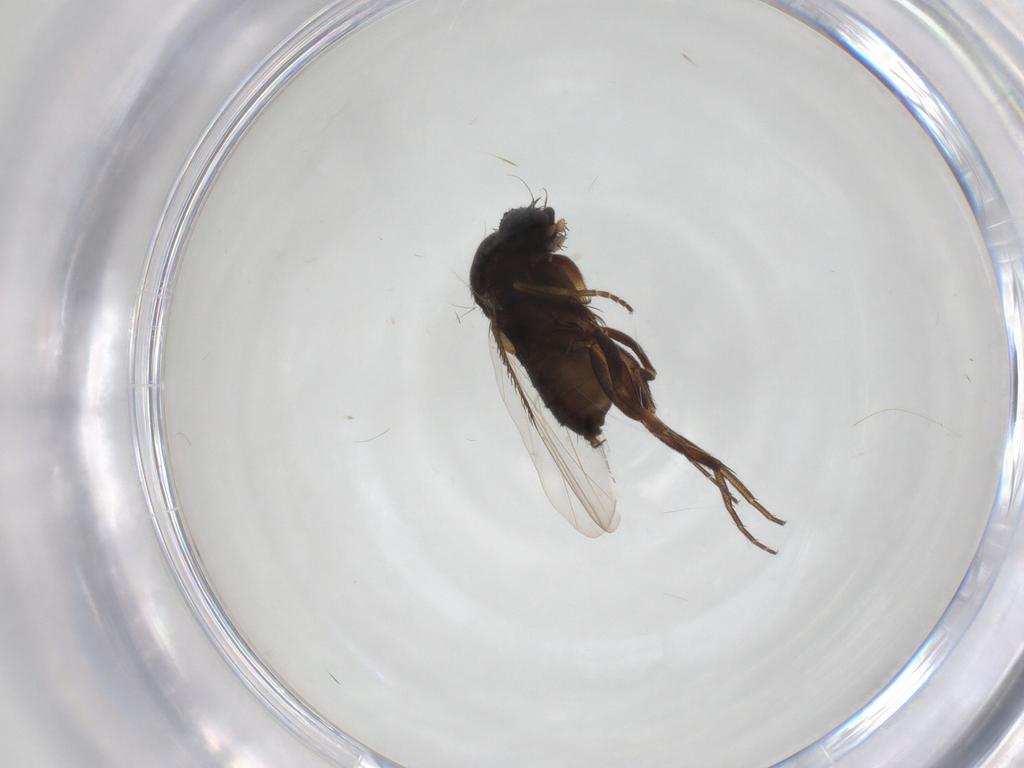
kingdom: Animalia
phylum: Arthropoda
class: Insecta
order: Diptera
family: Phoridae
